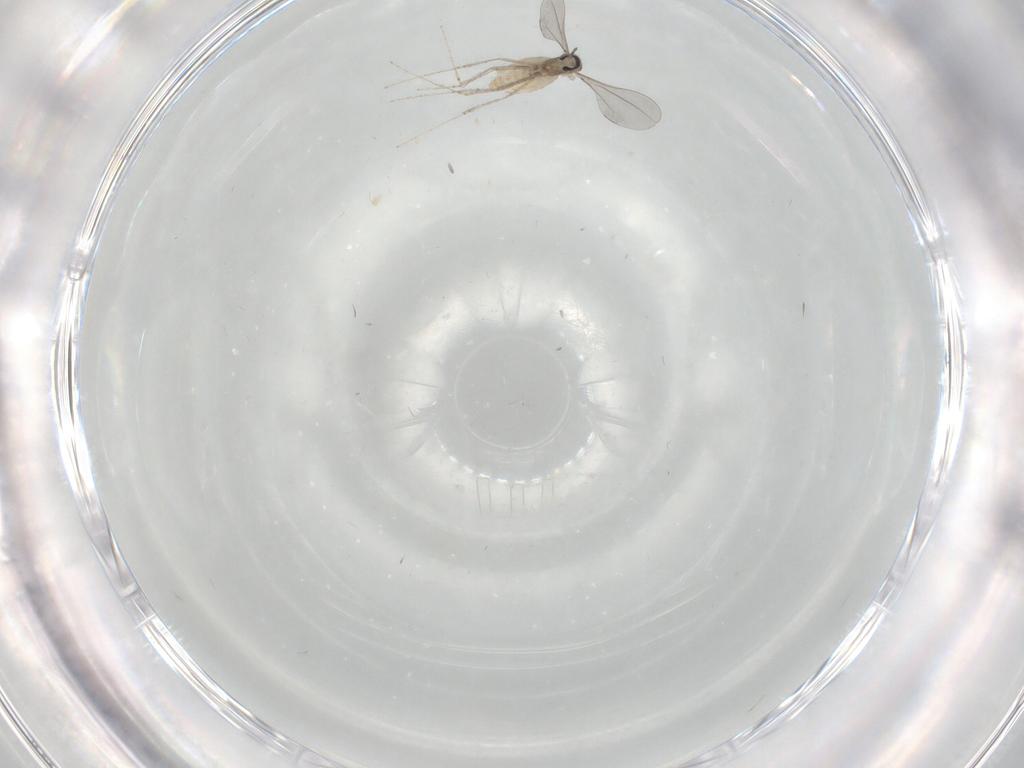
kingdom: Animalia
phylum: Arthropoda
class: Insecta
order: Diptera
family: Cecidomyiidae
